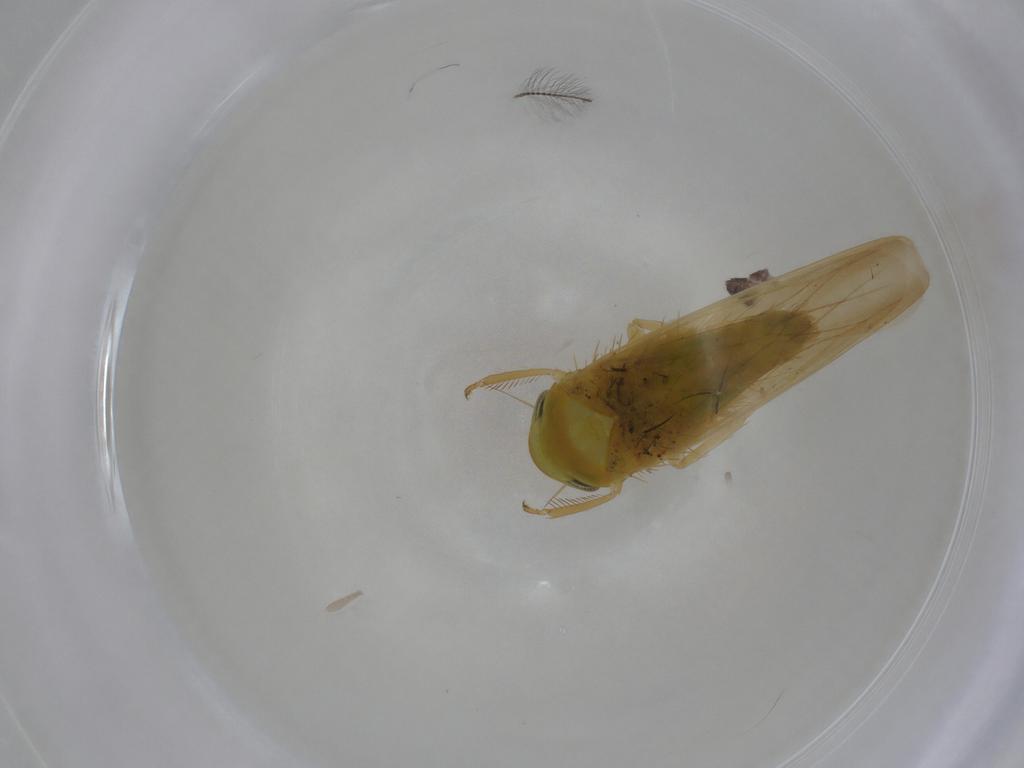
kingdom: Animalia
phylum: Arthropoda
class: Insecta
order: Hemiptera
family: Cicadellidae
